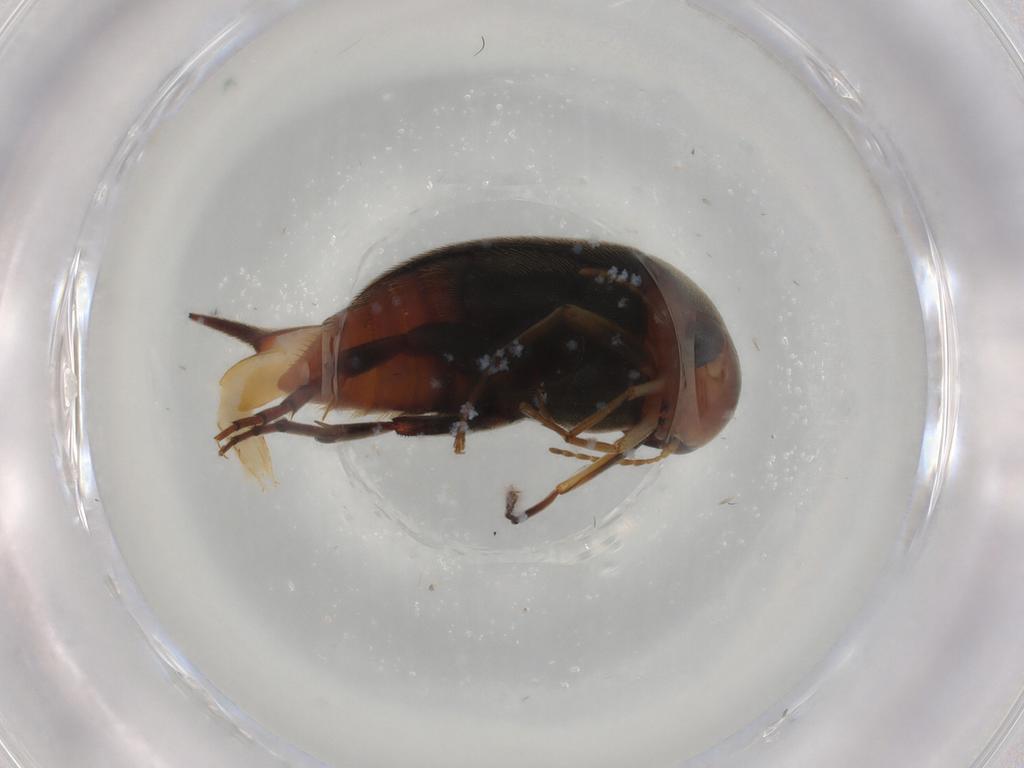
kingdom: Animalia
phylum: Arthropoda
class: Insecta
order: Coleoptera
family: Mordellidae
